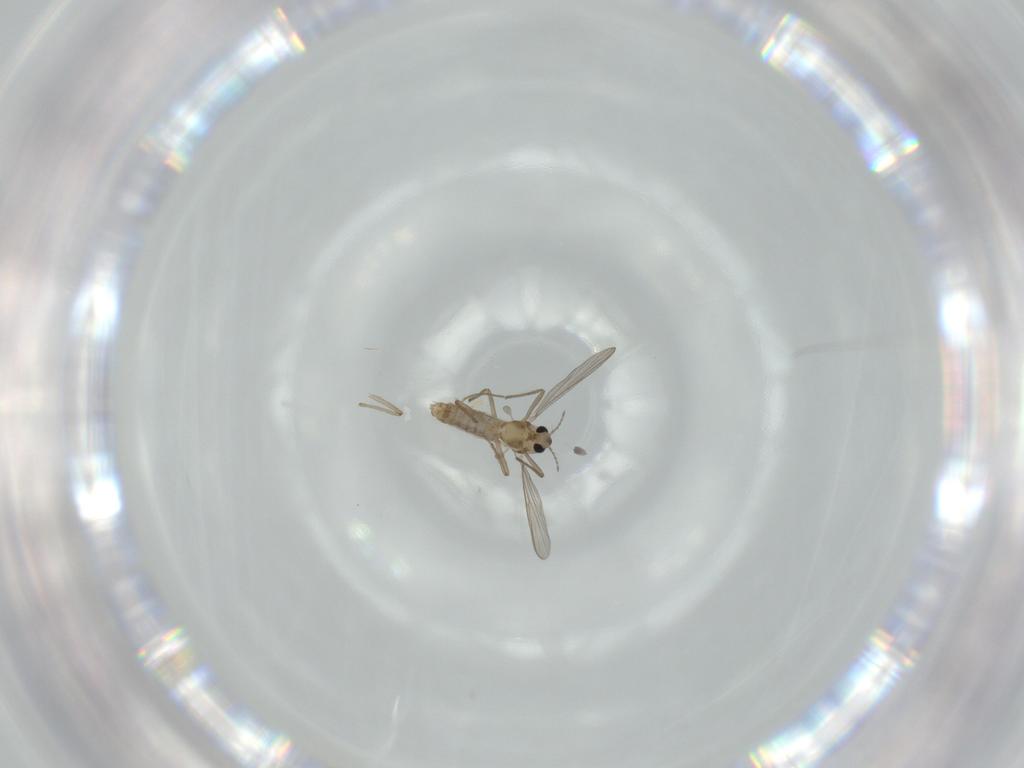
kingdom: Animalia
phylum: Arthropoda
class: Insecta
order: Diptera
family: Chironomidae
